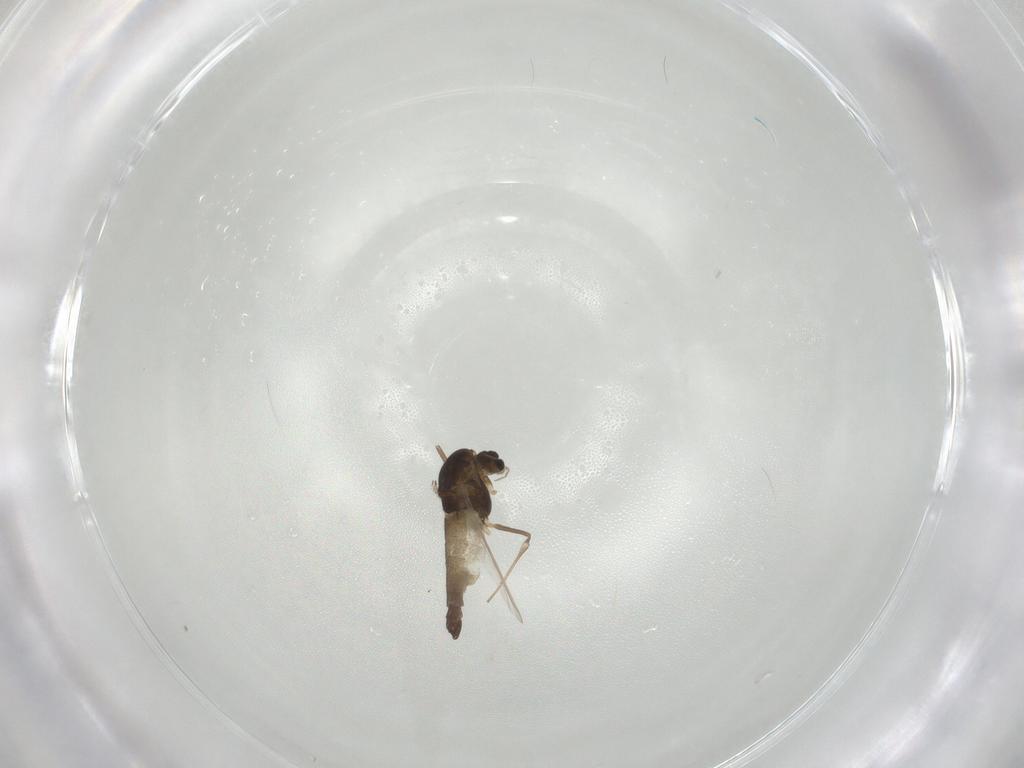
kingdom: Animalia
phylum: Arthropoda
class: Insecta
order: Diptera
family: Chironomidae
